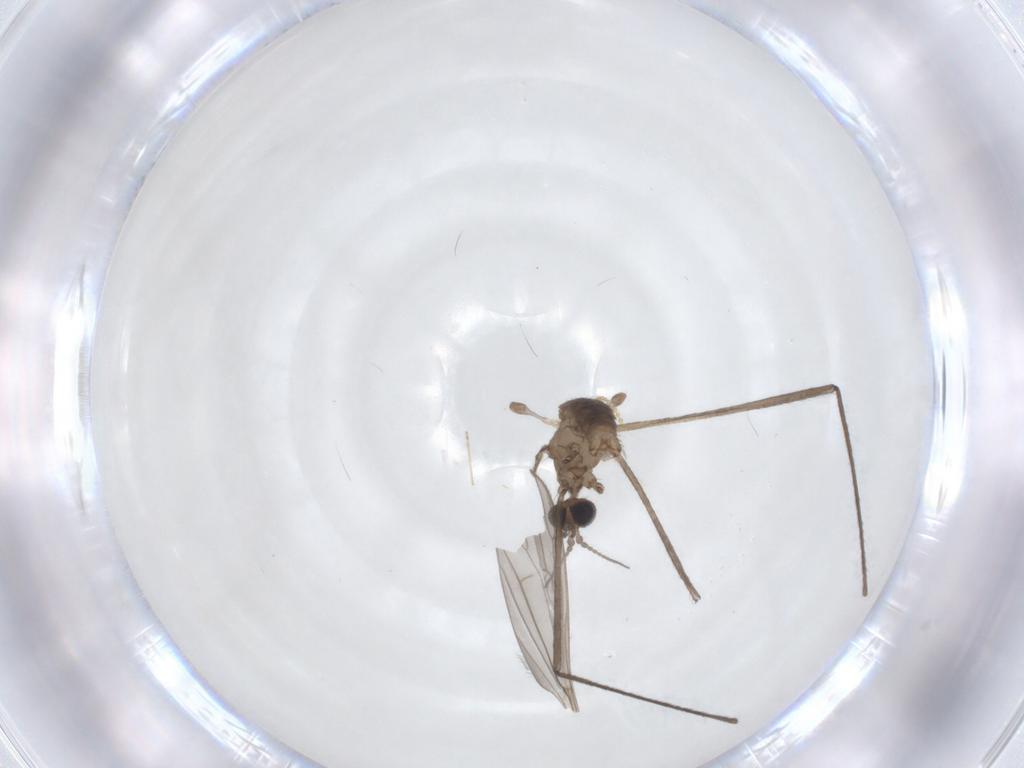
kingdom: Animalia
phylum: Arthropoda
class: Insecta
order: Diptera
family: Limoniidae
